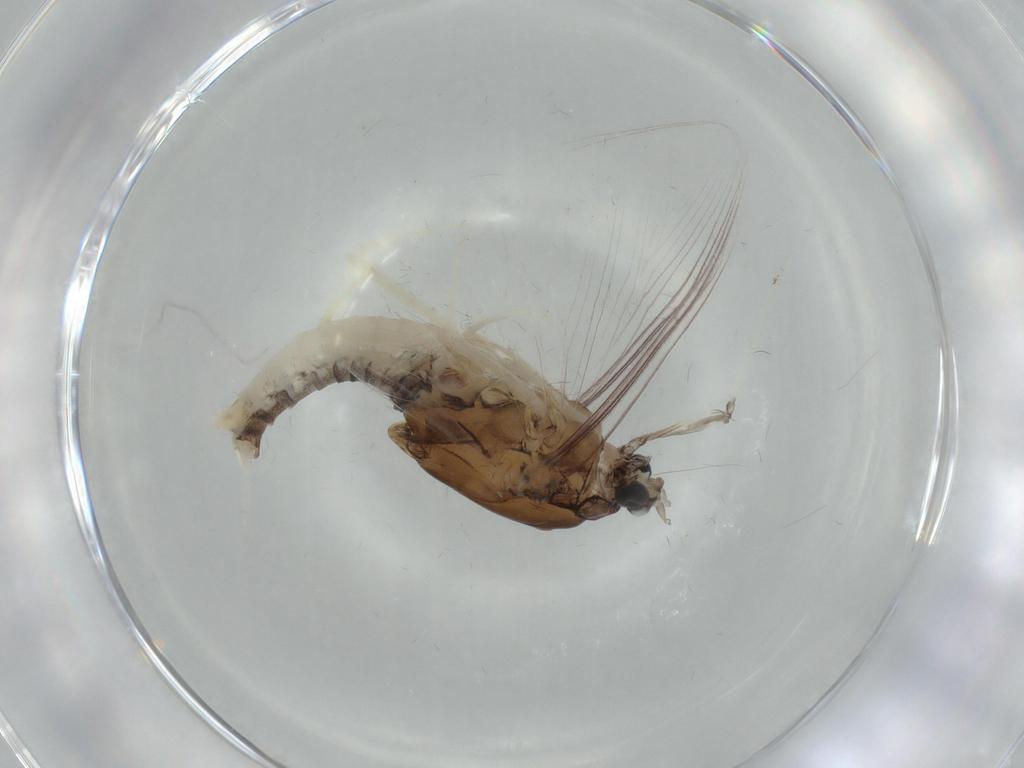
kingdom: Animalia
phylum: Arthropoda
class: Insecta
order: Ephemeroptera
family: Caenidae
